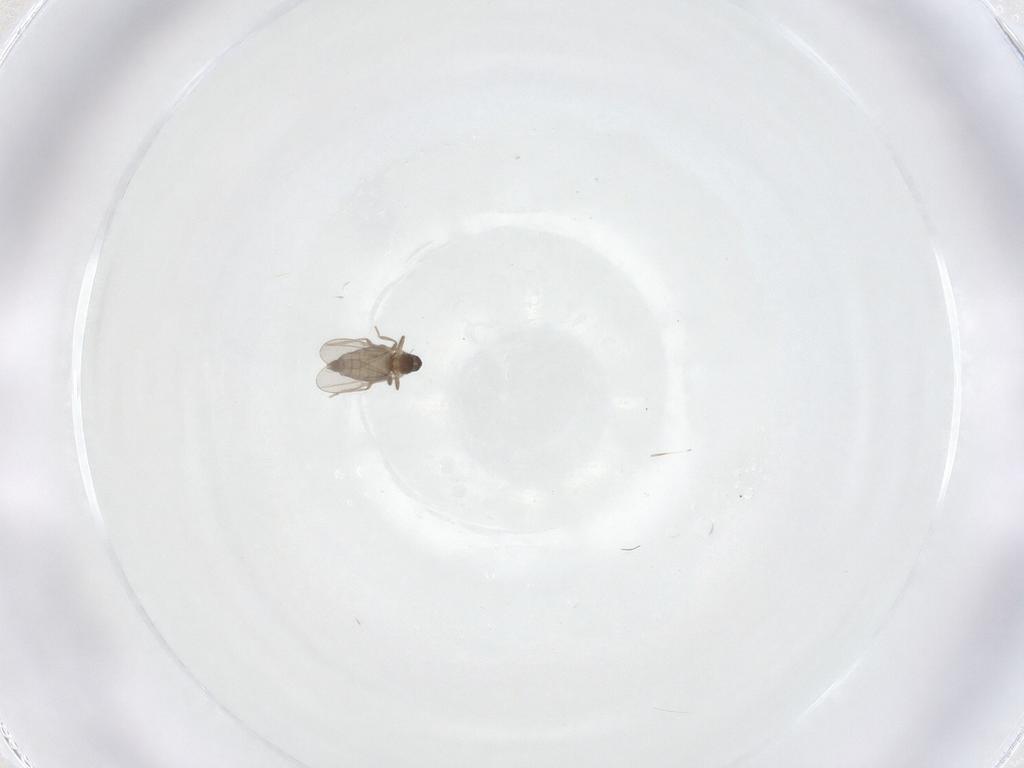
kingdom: Animalia
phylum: Arthropoda
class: Insecta
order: Diptera
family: Cecidomyiidae
